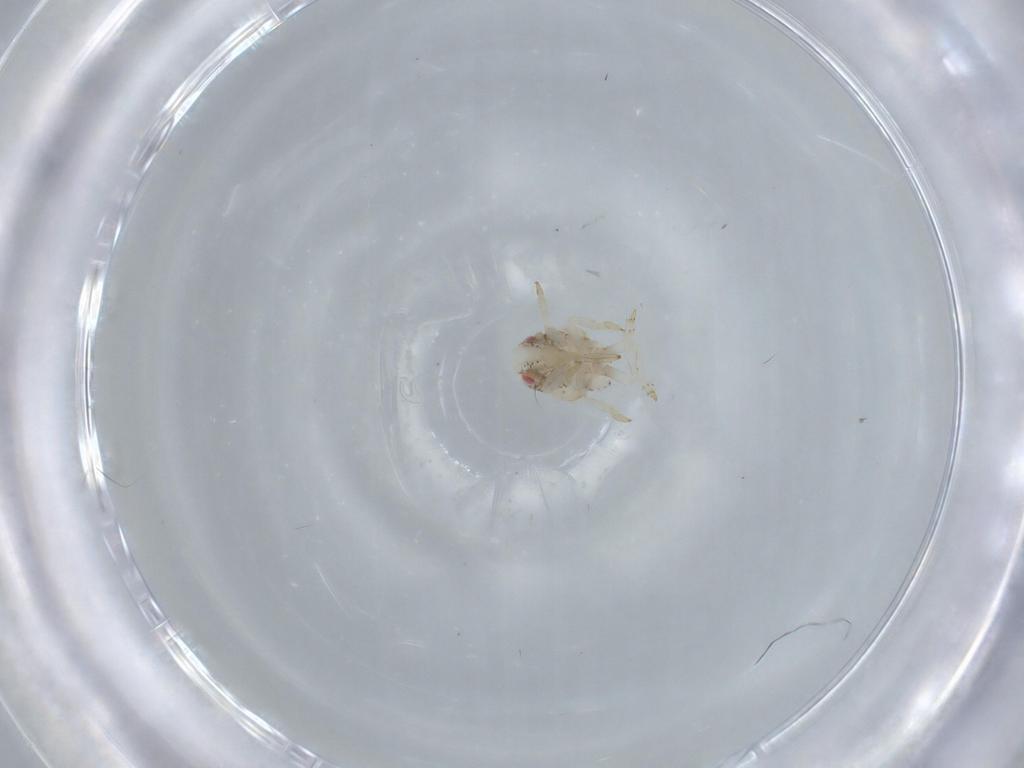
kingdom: Animalia
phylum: Arthropoda
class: Insecta
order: Hemiptera
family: Acanaloniidae
